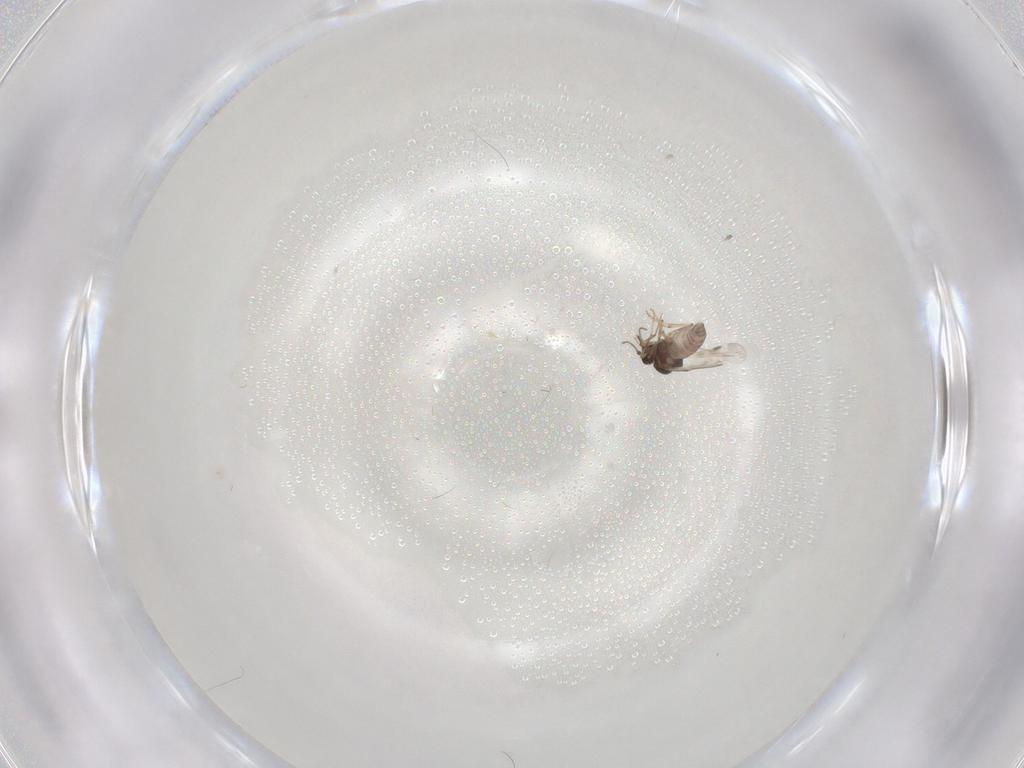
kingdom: Animalia
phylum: Arthropoda
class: Insecta
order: Diptera
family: Ceratopogonidae
